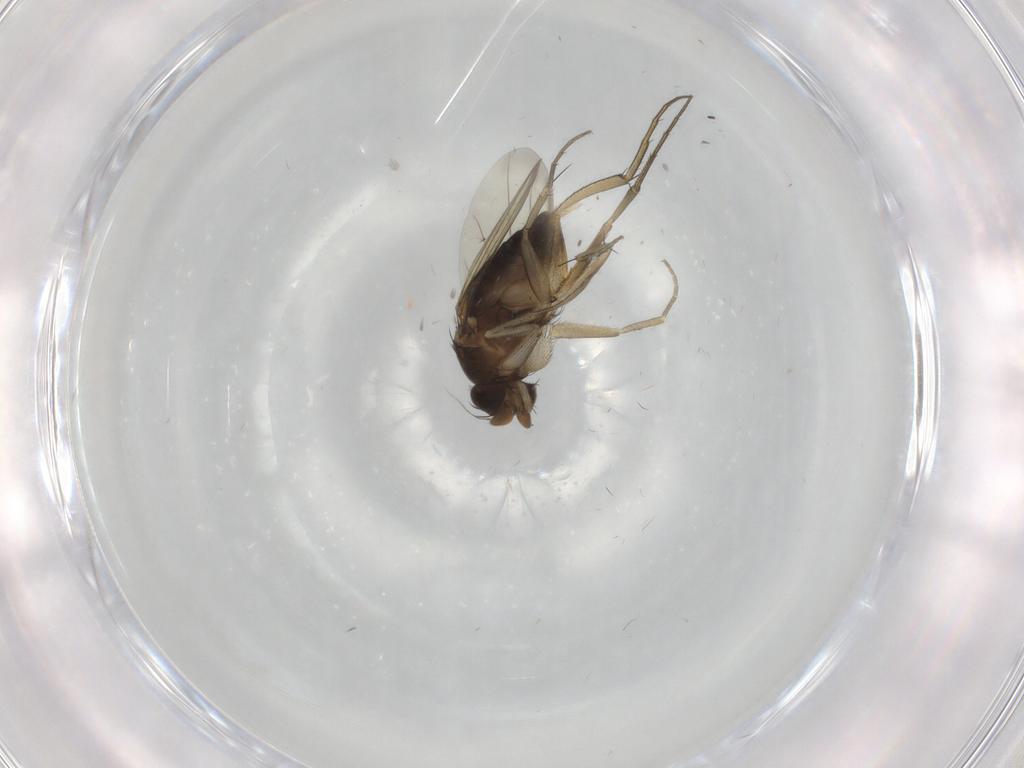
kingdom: Animalia
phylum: Arthropoda
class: Insecta
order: Diptera
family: Phoridae
